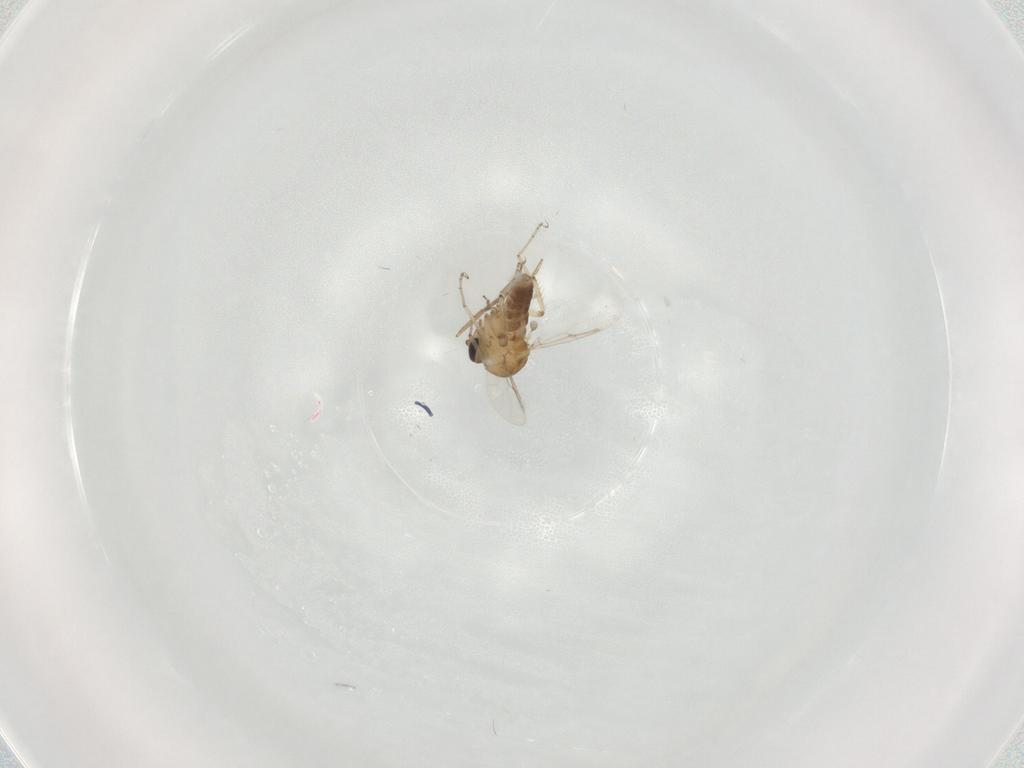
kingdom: Animalia
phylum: Arthropoda
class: Insecta
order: Diptera
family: Ceratopogonidae
